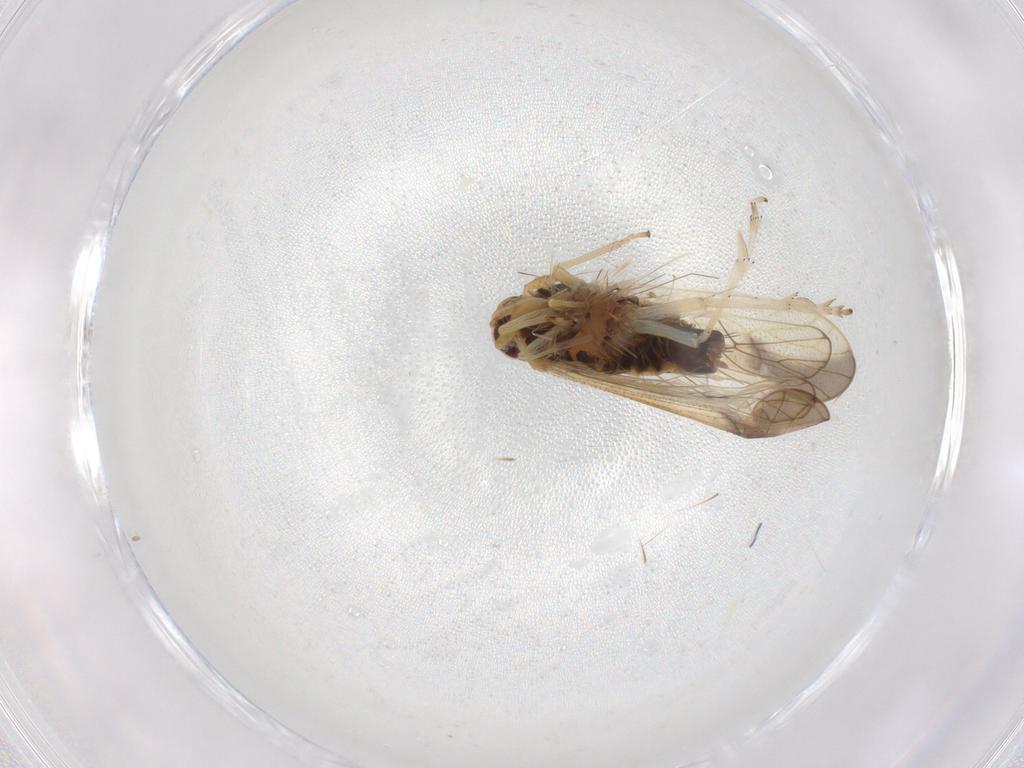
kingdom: Animalia
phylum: Arthropoda
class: Insecta
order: Hemiptera
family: Delphacidae
